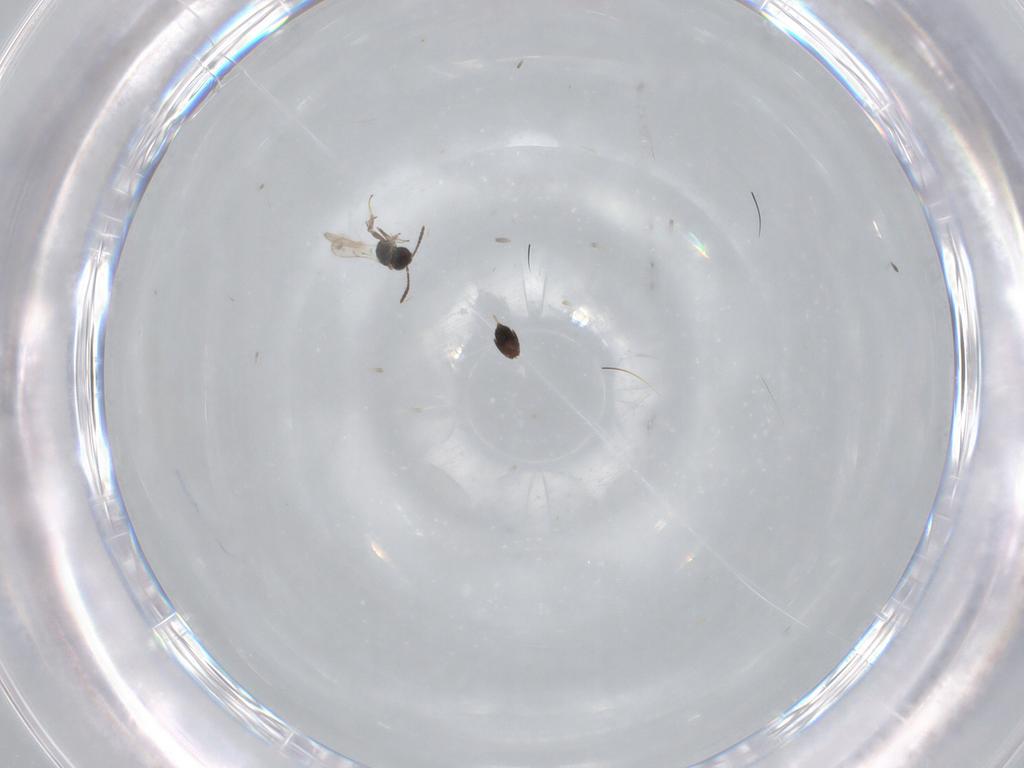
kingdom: Animalia
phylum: Arthropoda
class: Insecta
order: Hymenoptera
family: Scelionidae
